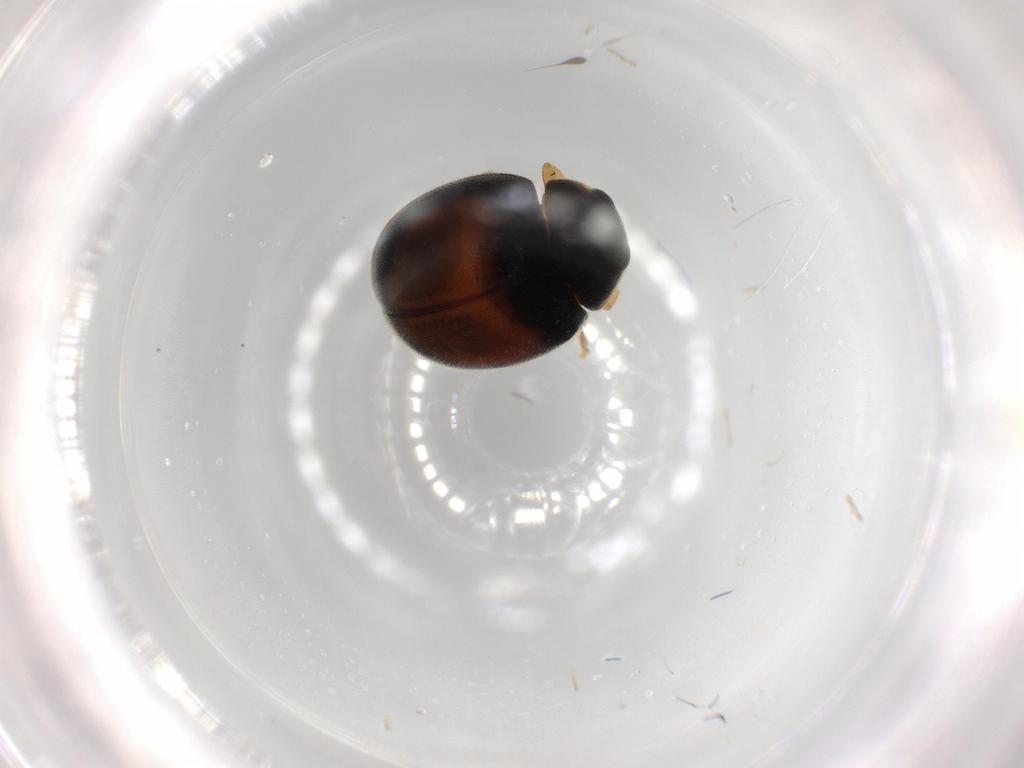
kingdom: Animalia
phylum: Arthropoda
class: Insecta
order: Coleoptera
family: Coccinellidae
